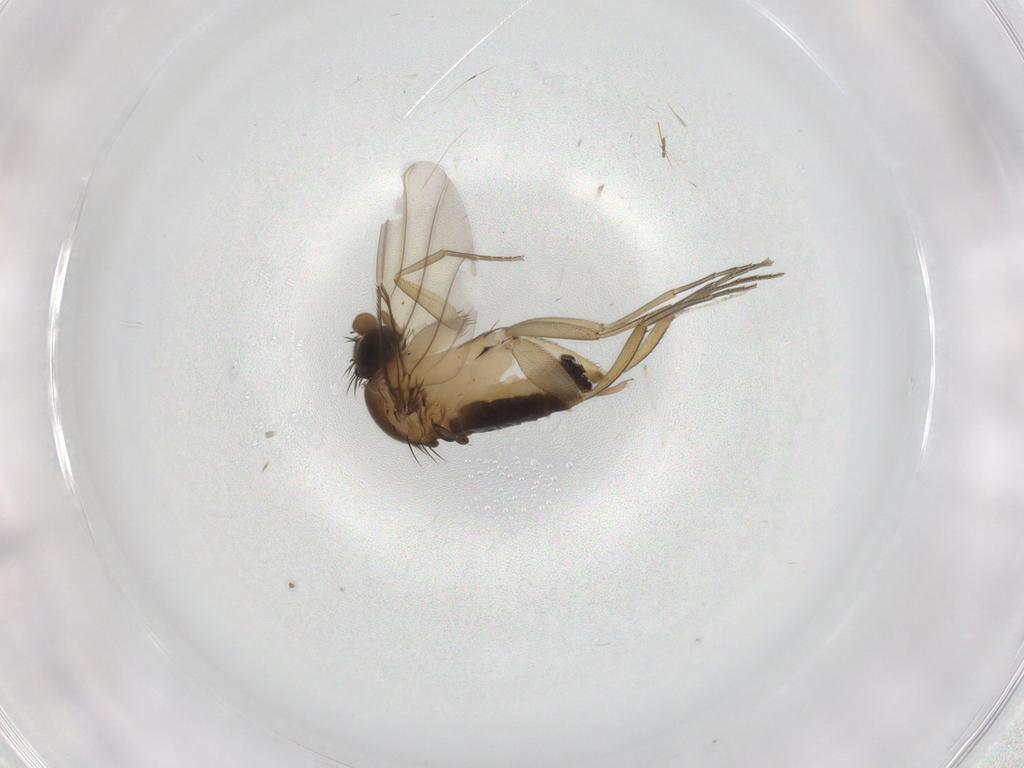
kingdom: Animalia
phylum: Arthropoda
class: Insecta
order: Diptera
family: Phoridae
